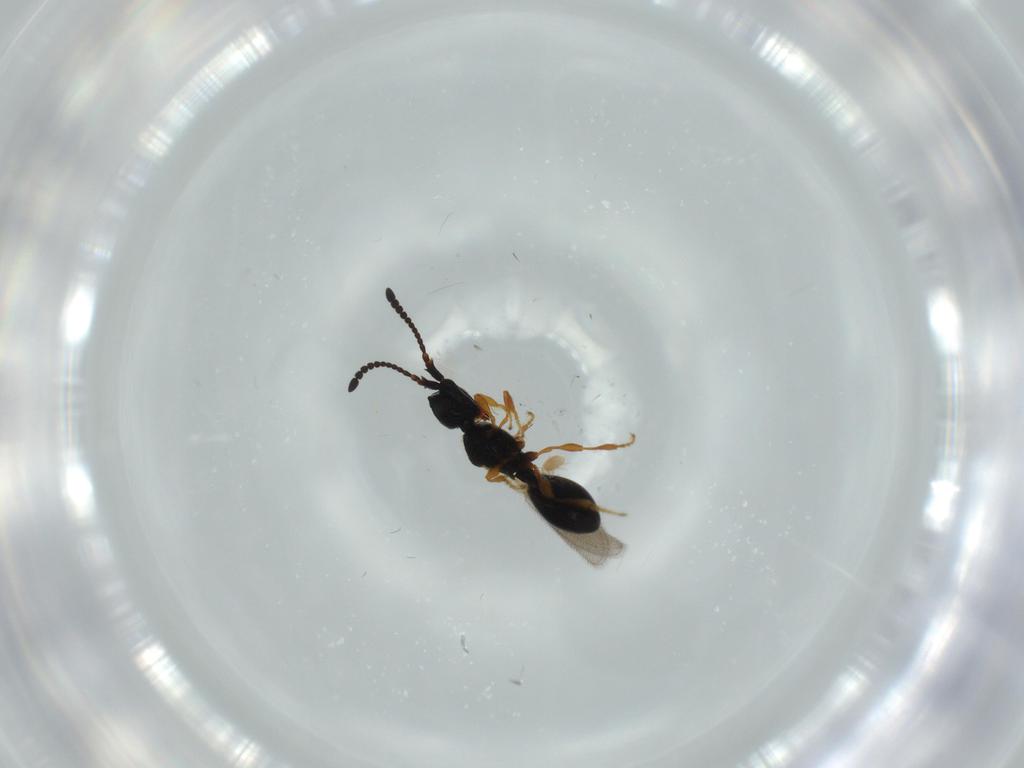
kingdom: Animalia
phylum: Arthropoda
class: Insecta
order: Hymenoptera
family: Diapriidae
